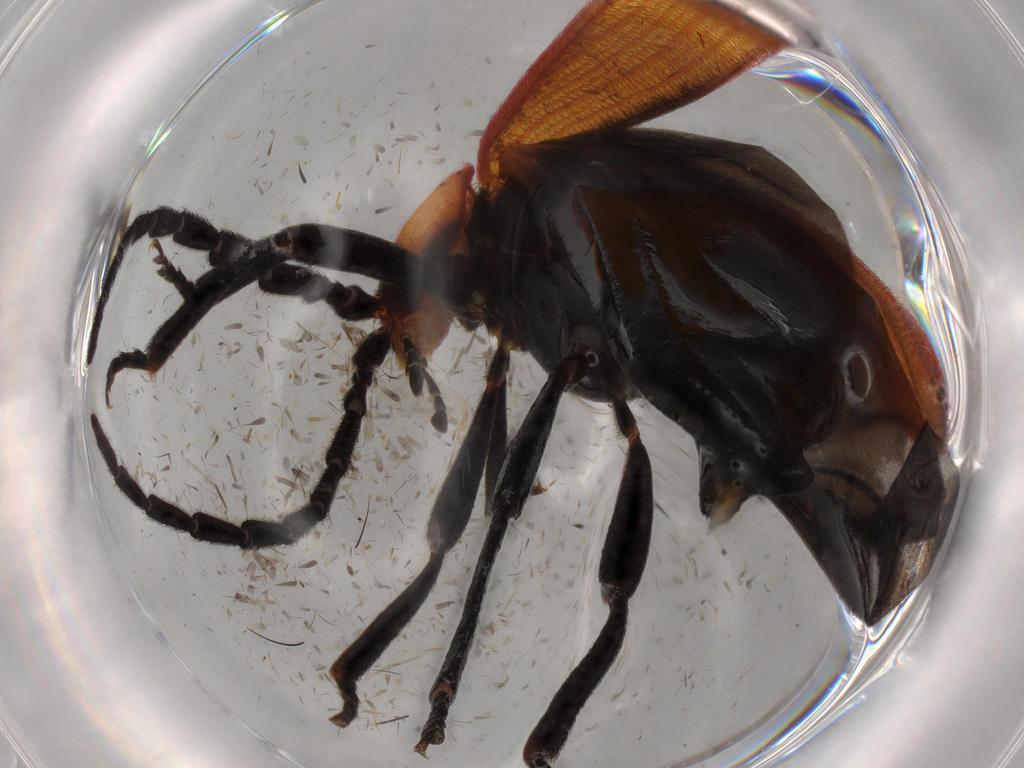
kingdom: Animalia
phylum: Arthropoda
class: Insecta
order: Coleoptera
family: Lycidae
